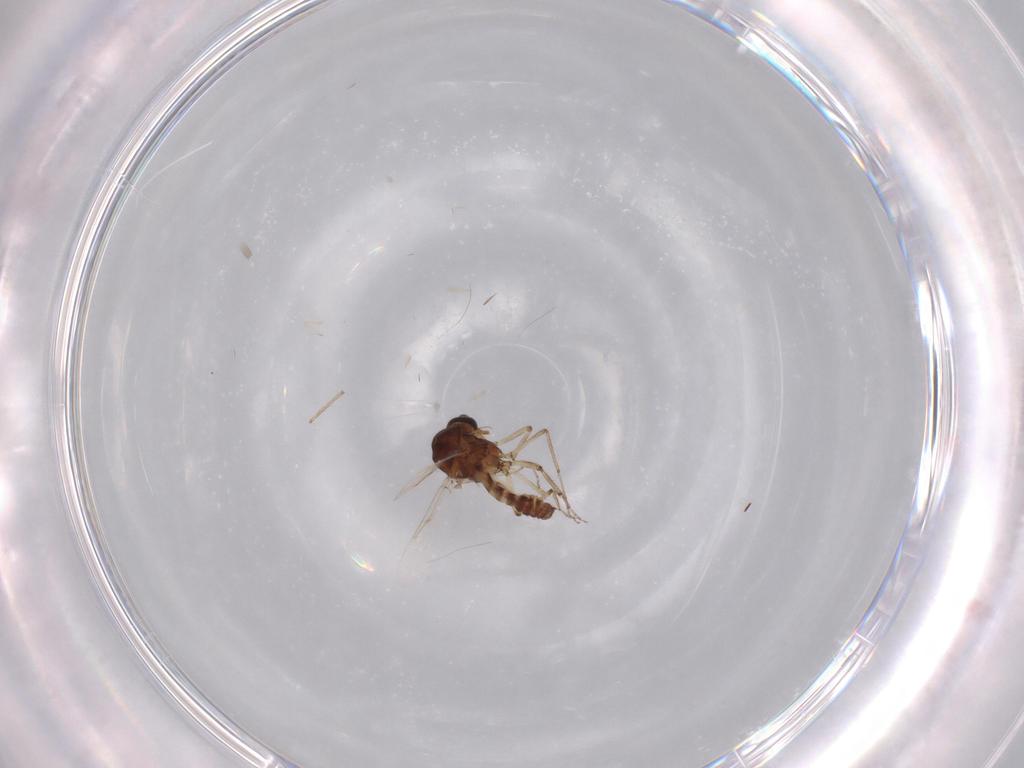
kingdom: Animalia
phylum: Arthropoda
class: Insecta
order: Diptera
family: Ceratopogonidae
